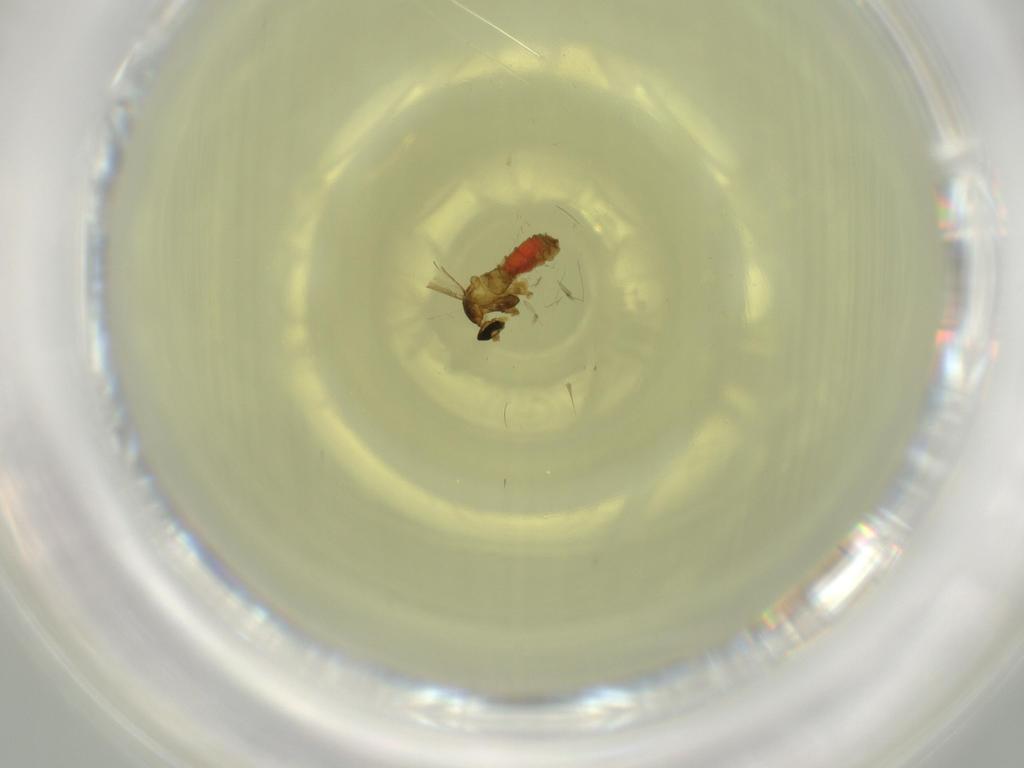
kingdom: Animalia
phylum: Arthropoda
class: Insecta
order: Diptera
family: Cecidomyiidae
